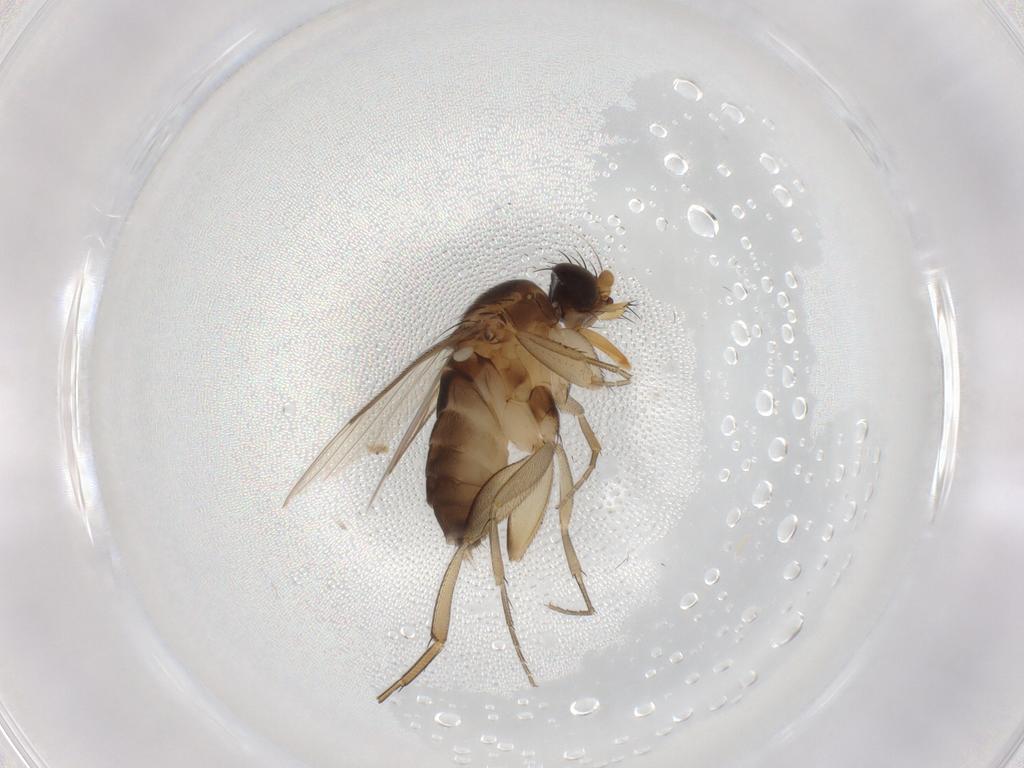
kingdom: Animalia
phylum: Arthropoda
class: Insecta
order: Diptera
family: Phoridae
